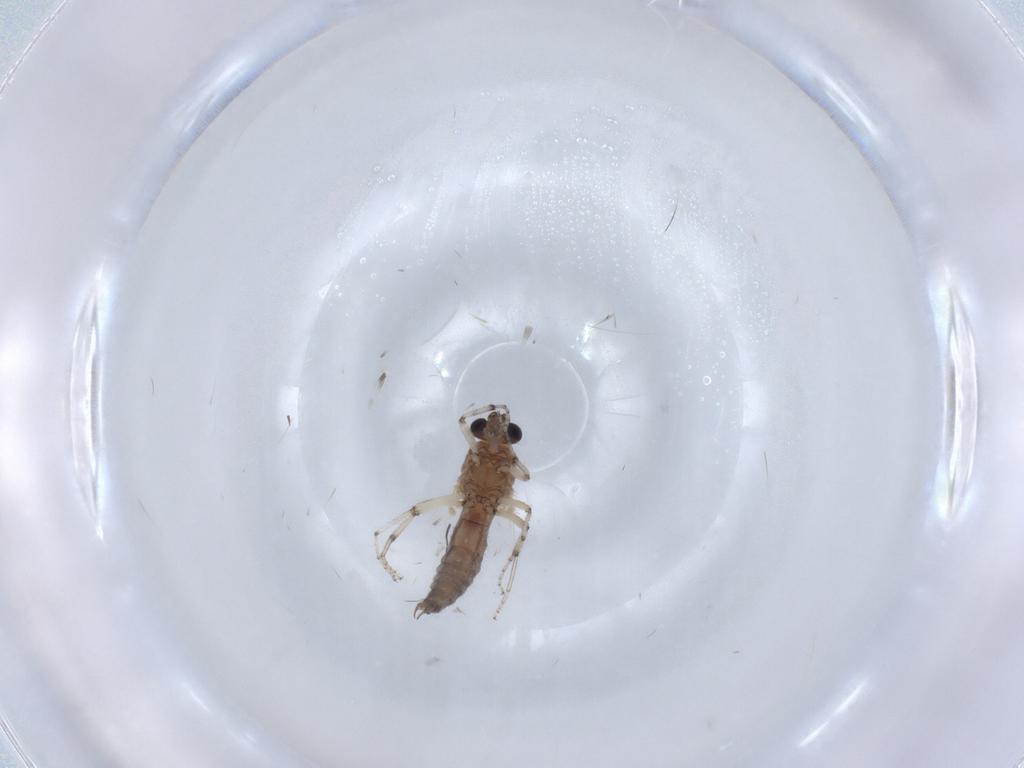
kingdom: Animalia
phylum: Arthropoda
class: Insecta
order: Diptera
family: Ceratopogonidae
